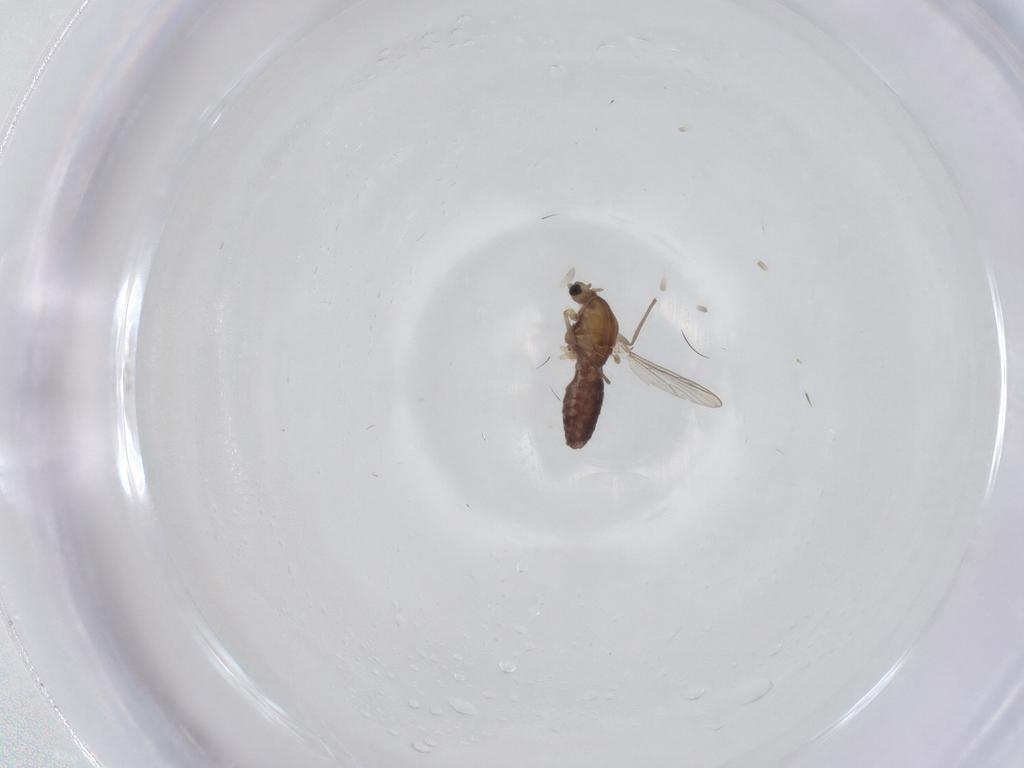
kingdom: Animalia
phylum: Arthropoda
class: Insecta
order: Diptera
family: Chironomidae
